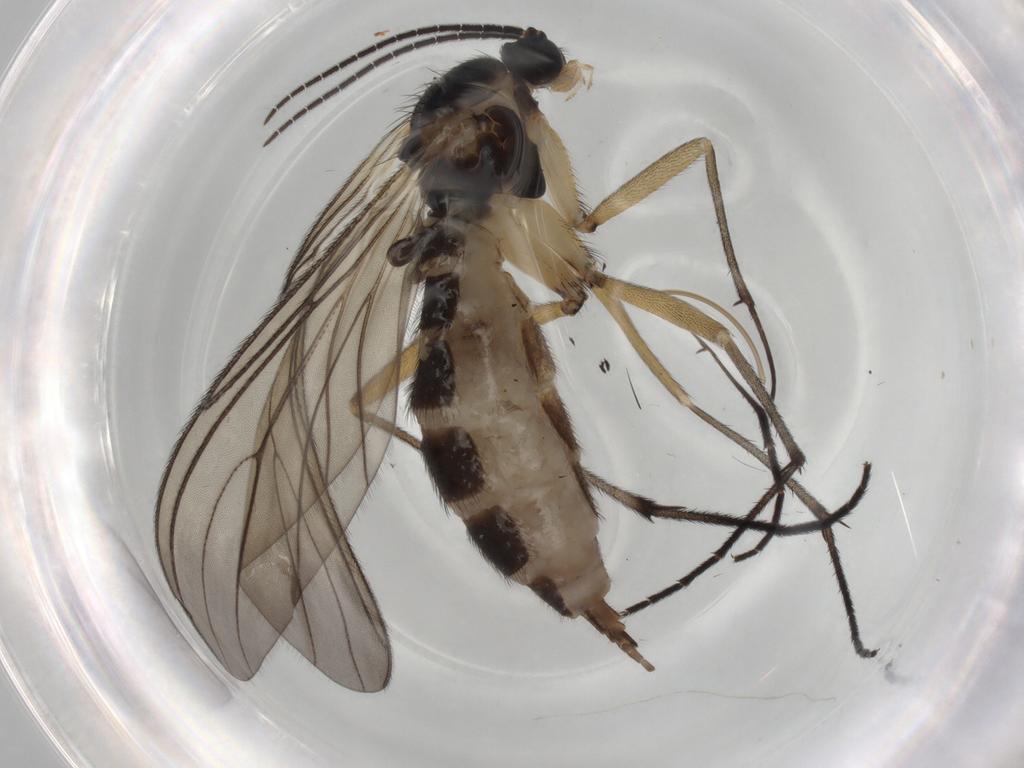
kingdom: Animalia
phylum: Arthropoda
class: Insecta
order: Diptera
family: Sciaridae
